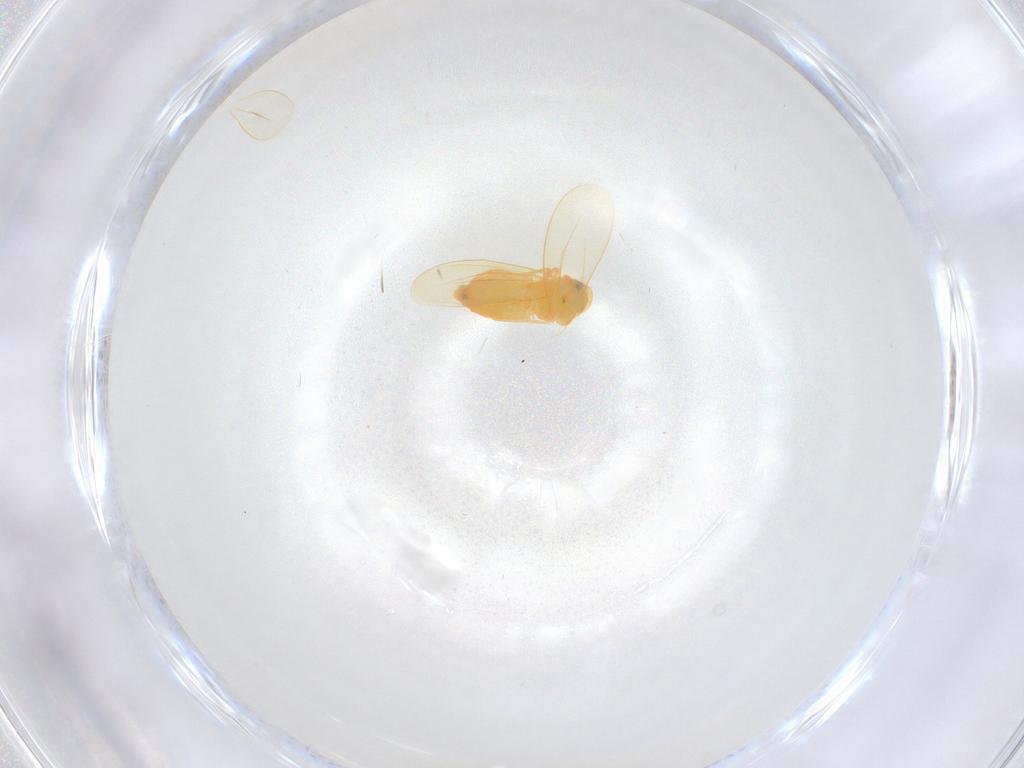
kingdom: Animalia
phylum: Arthropoda
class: Insecta
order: Hemiptera
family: Aleyrodidae
